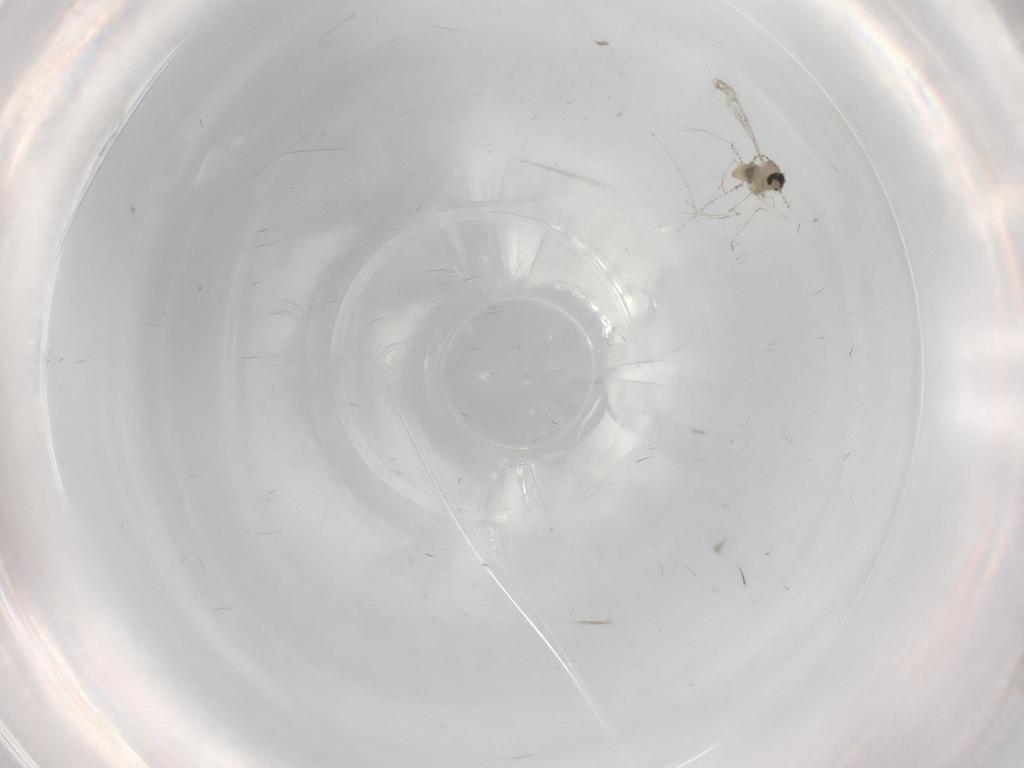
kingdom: Animalia
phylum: Arthropoda
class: Insecta
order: Diptera
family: Cecidomyiidae
